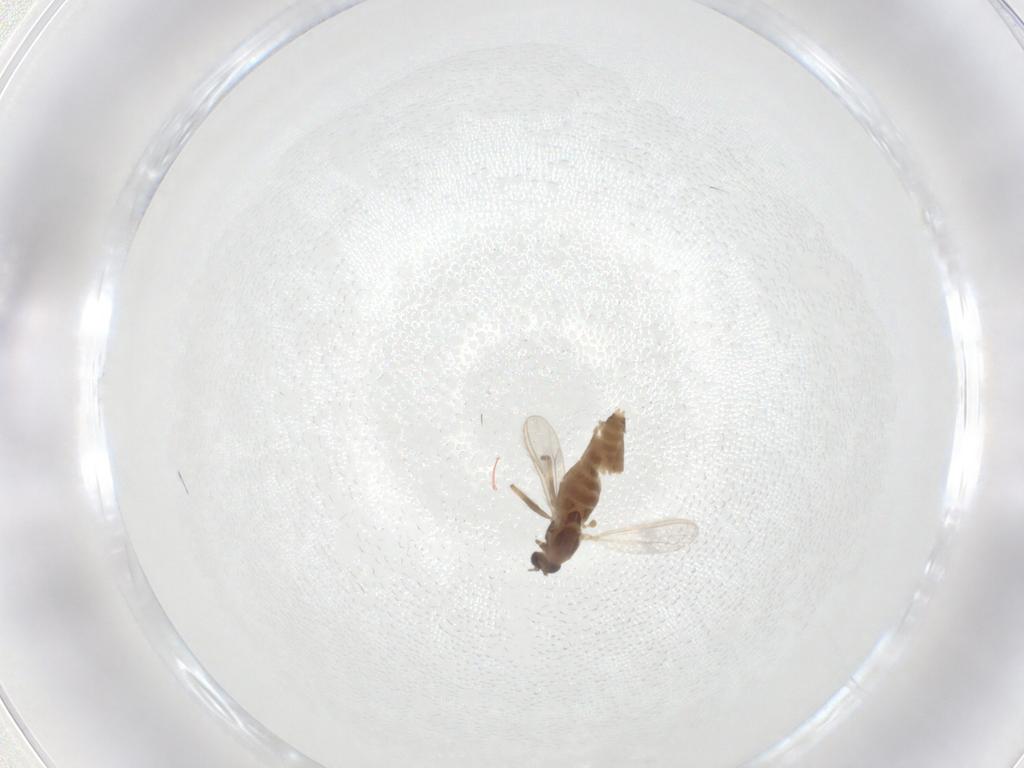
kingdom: Animalia
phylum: Arthropoda
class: Insecta
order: Diptera
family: Chironomidae
